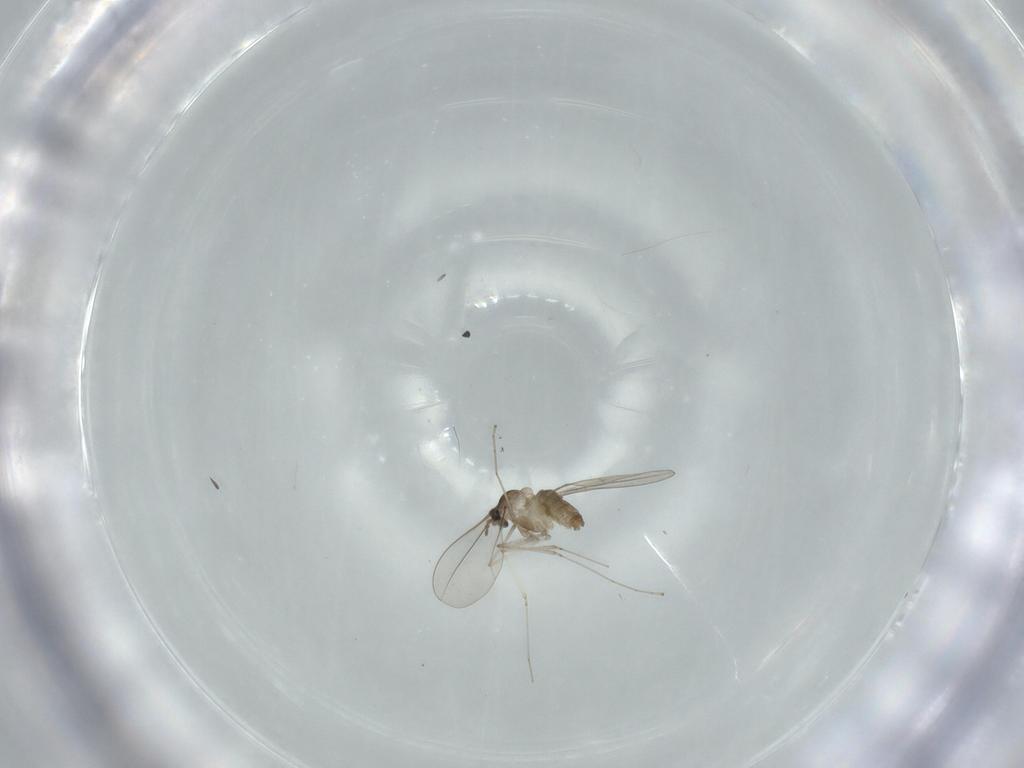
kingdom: Animalia
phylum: Arthropoda
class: Insecta
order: Diptera
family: Cecidomyiidae
